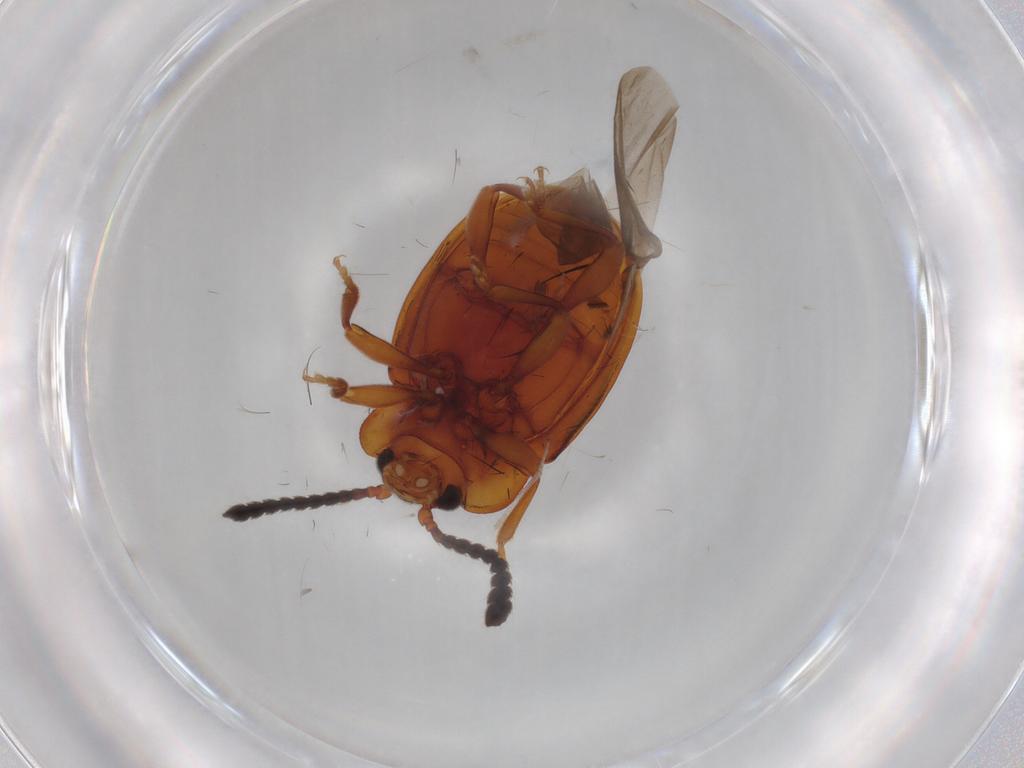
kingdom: Animalia
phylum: Arthropoda
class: Insecta
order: Coleoptera
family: Endomychidae
